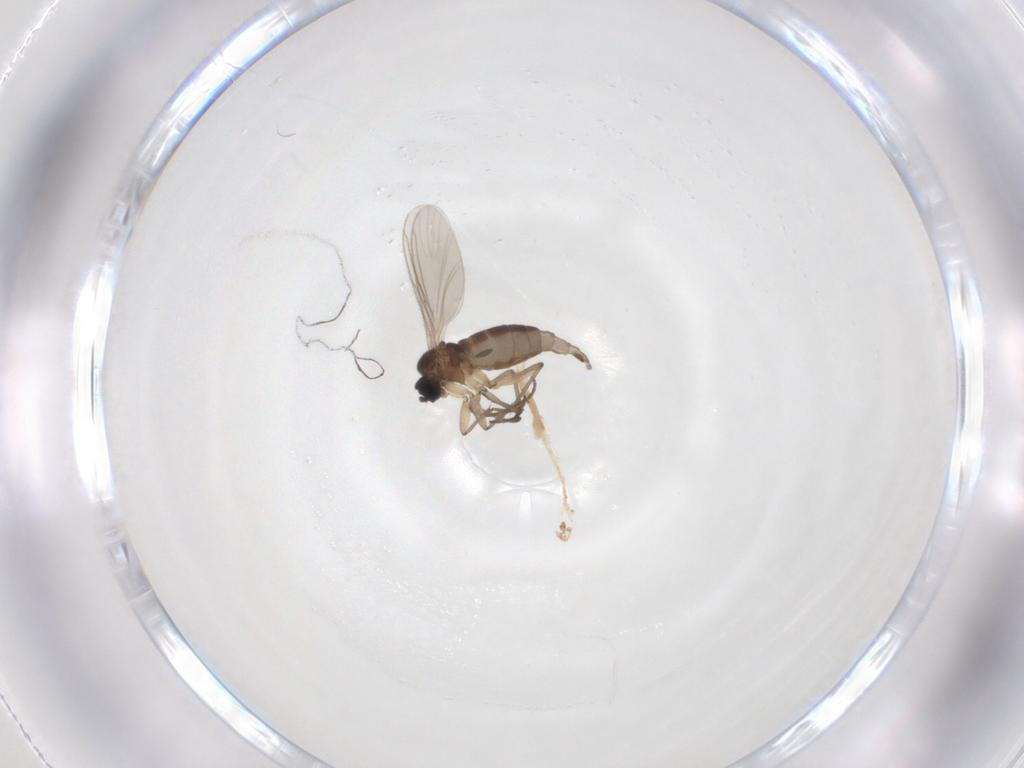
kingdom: Animalia
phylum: Arthropoda
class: Insecta
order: Diptera
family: Sciaridae
